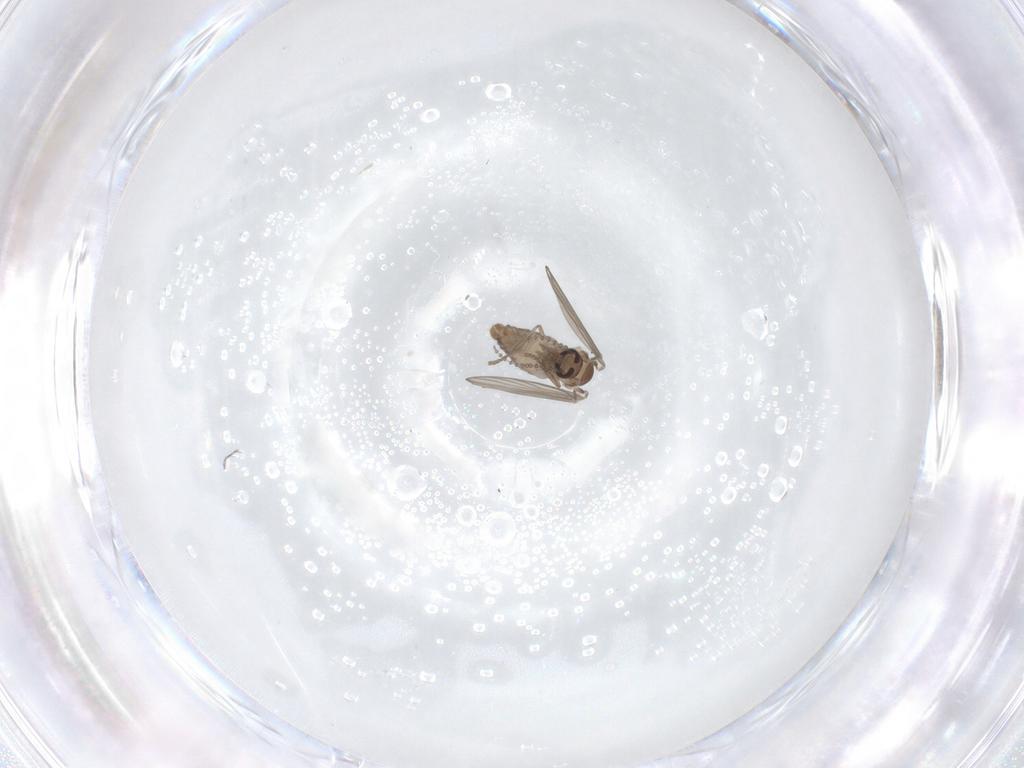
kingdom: Animalia
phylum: Arthropoda
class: Insecta
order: Diptera
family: Psychodidae
